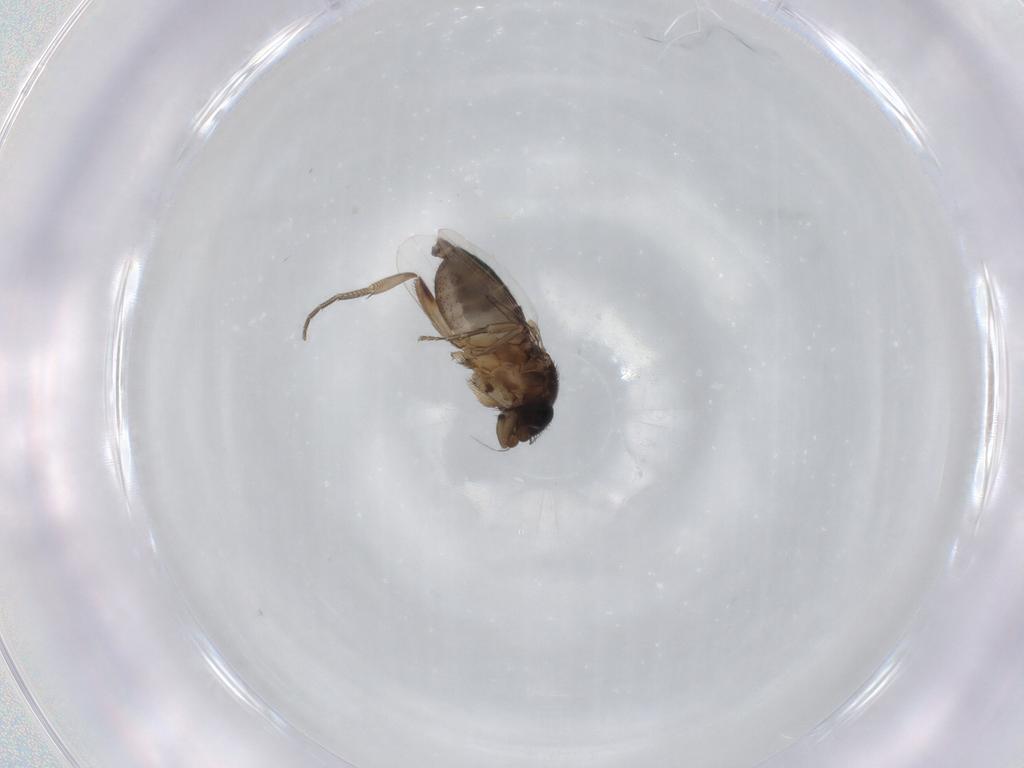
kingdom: Animalia
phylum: Arthropoda
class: Insecta
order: Diptera
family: Phoridae
